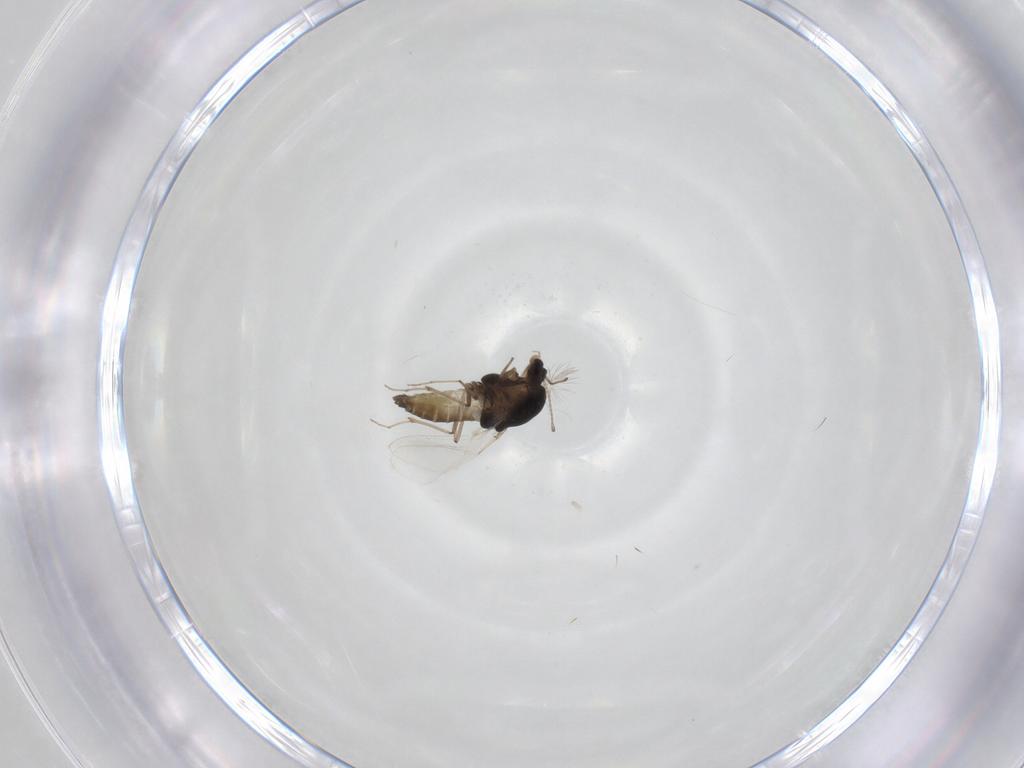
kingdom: Animalia
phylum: Arthropoda
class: Insecta
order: Diptera
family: Chironomidae
